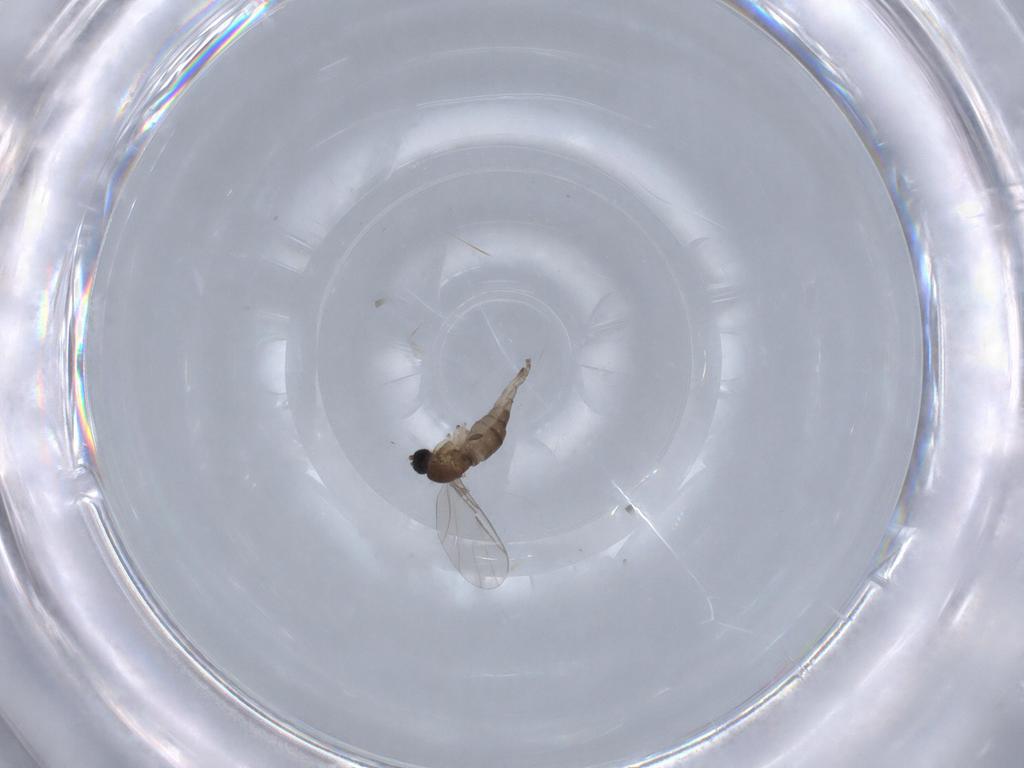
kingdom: Animalia
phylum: Arthropoda
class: Insecta
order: Diptera
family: Sciaridae
